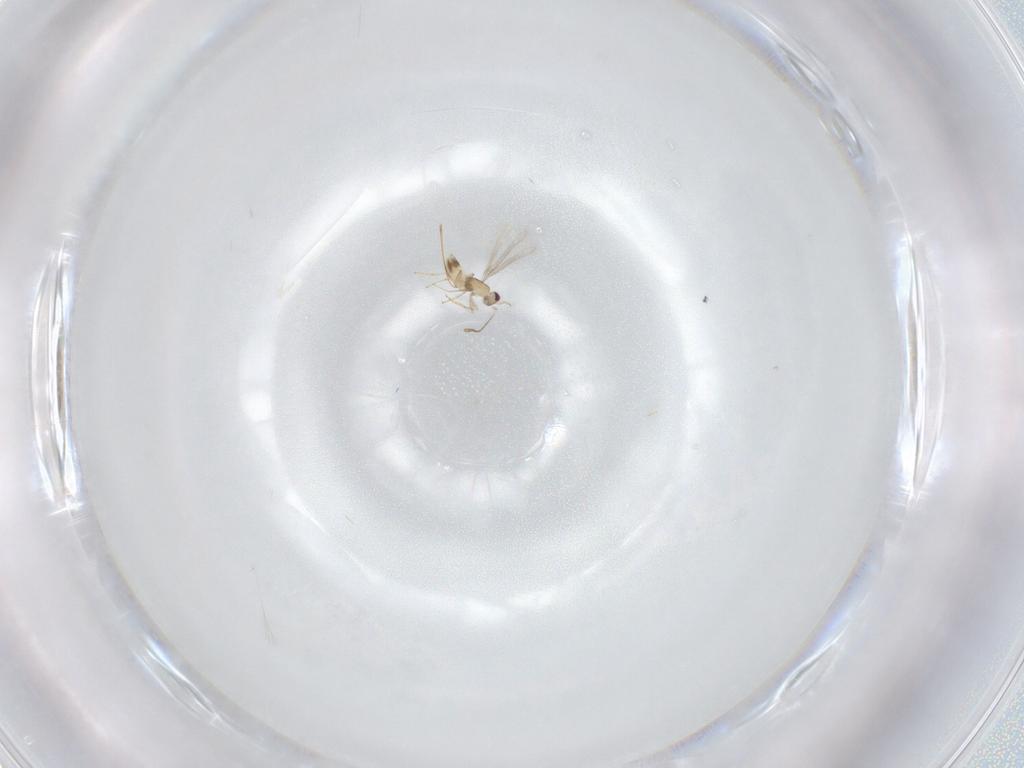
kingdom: Animalia
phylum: Arthropoda
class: Insecta
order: Hymenoptera
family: Mymaridae
